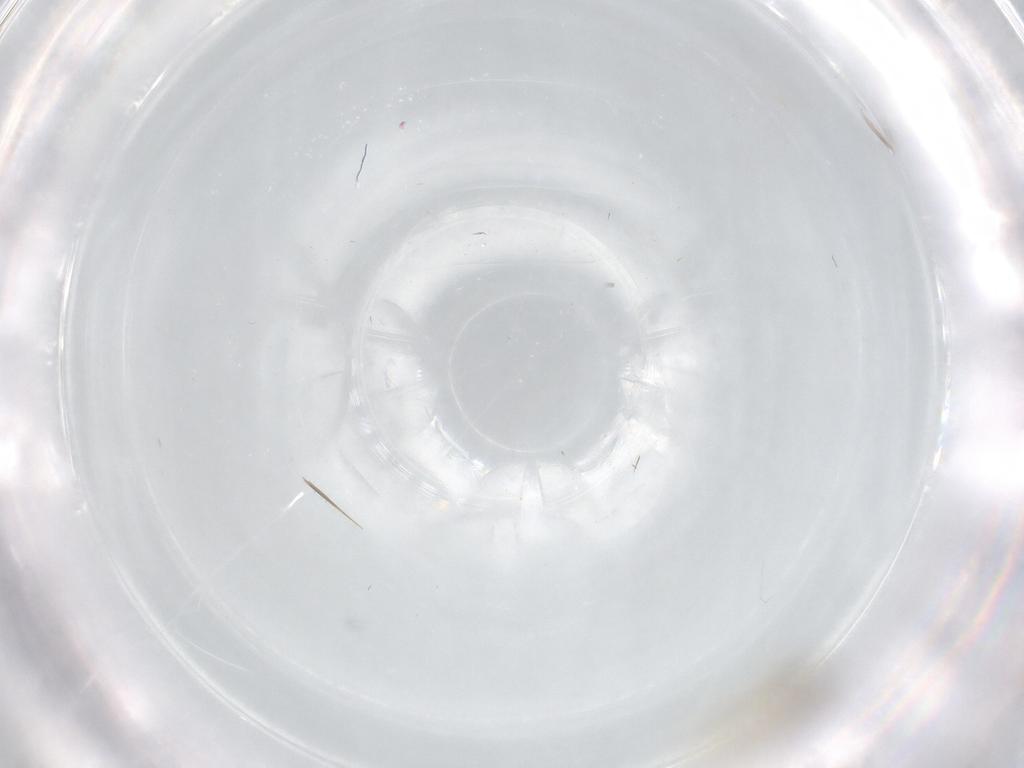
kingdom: Animalia
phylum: Arthropoda
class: Insecta
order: Diptera
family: Cecidomyiidae
